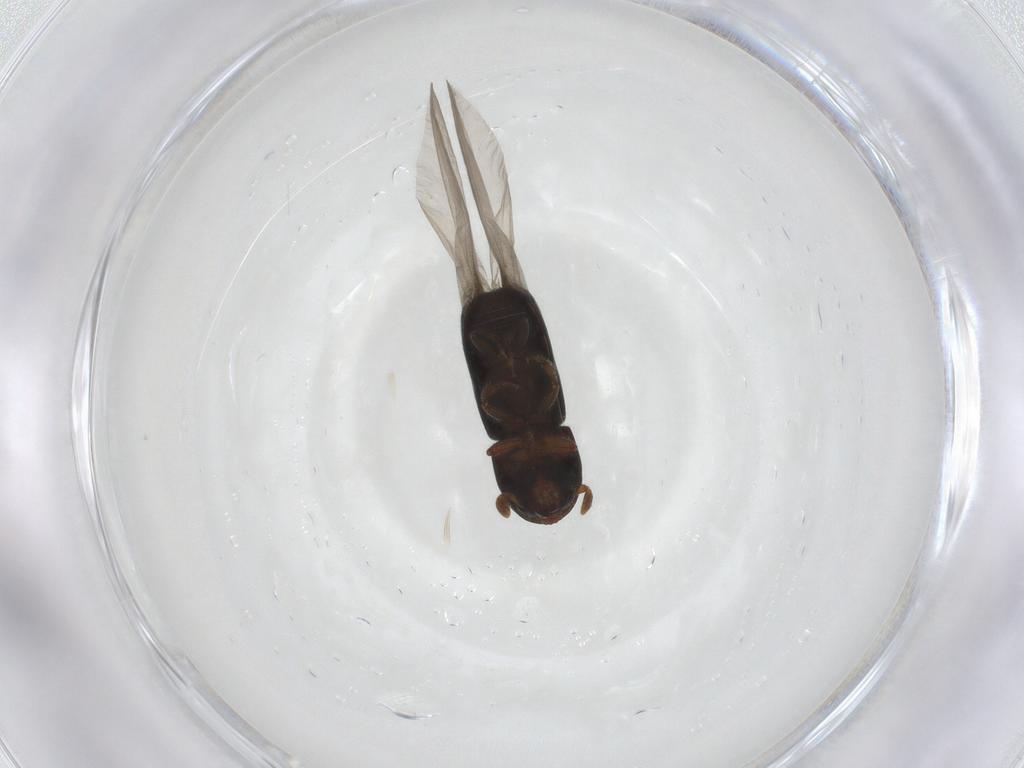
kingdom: Animalia
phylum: Arthropoda
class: Insecta
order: Coleoptera
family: Curculionidae
